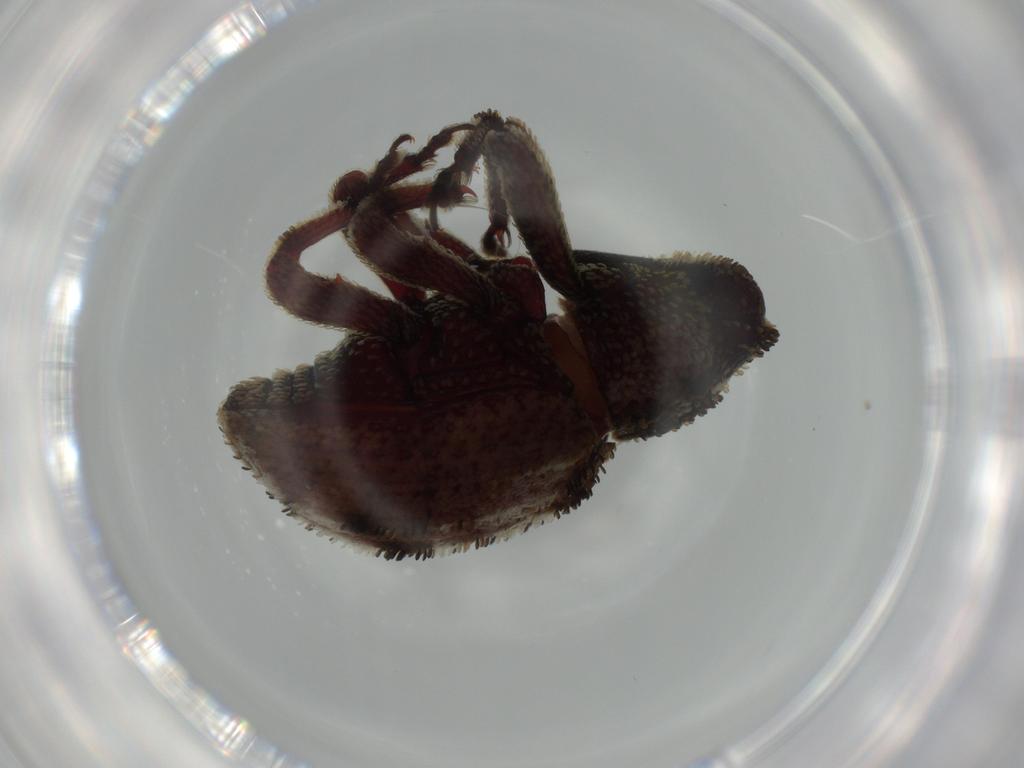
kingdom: Animalia
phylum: Arthropoda
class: Insecta
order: Coleoptera
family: Curculionidae
